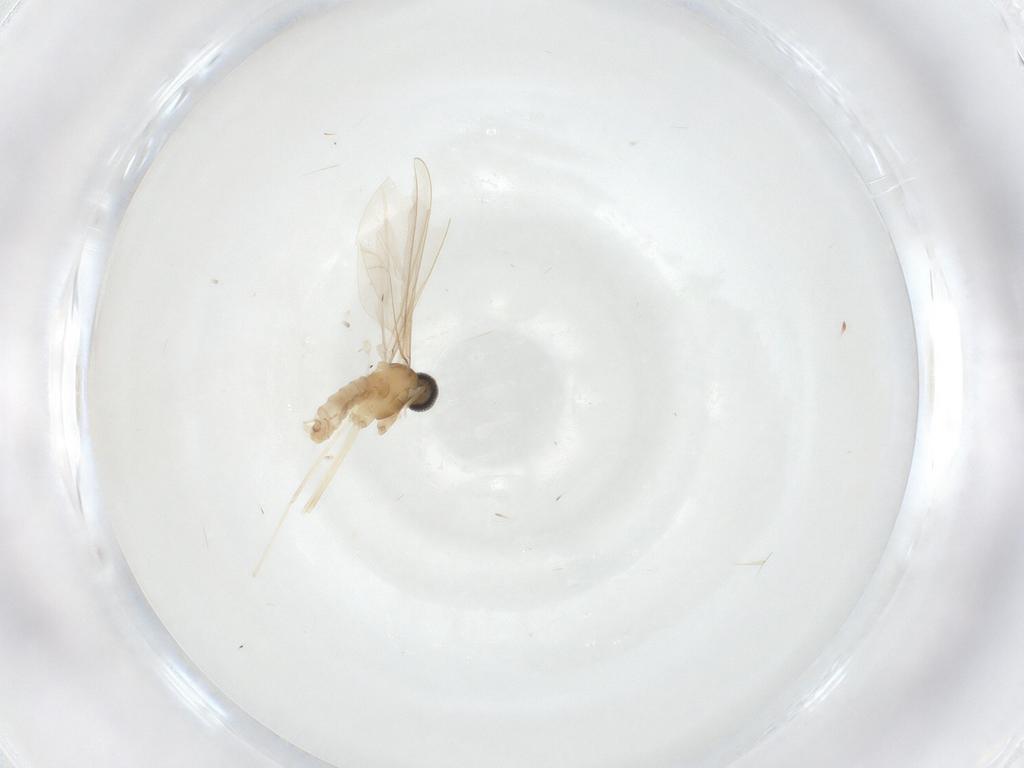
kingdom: Animalia
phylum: Arthropoda
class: Insecta
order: Diptera
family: Cecidomyiidae
